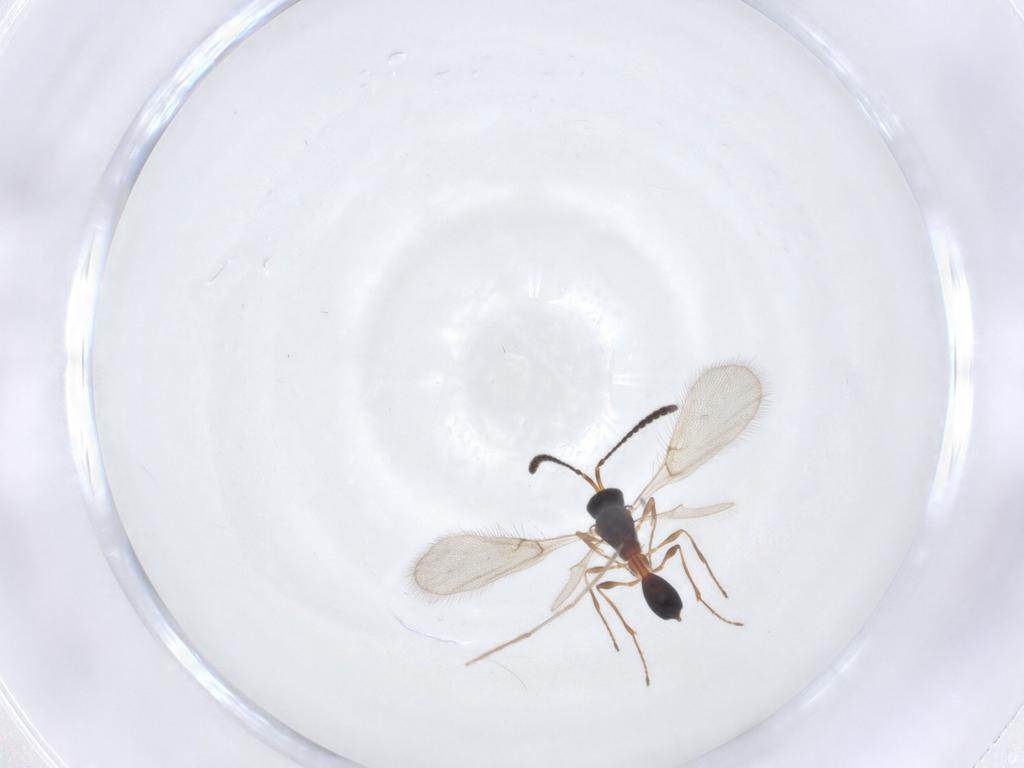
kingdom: Animalia
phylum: Arthropoda
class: Insecta
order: Hymenoptera
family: Diapriidae
